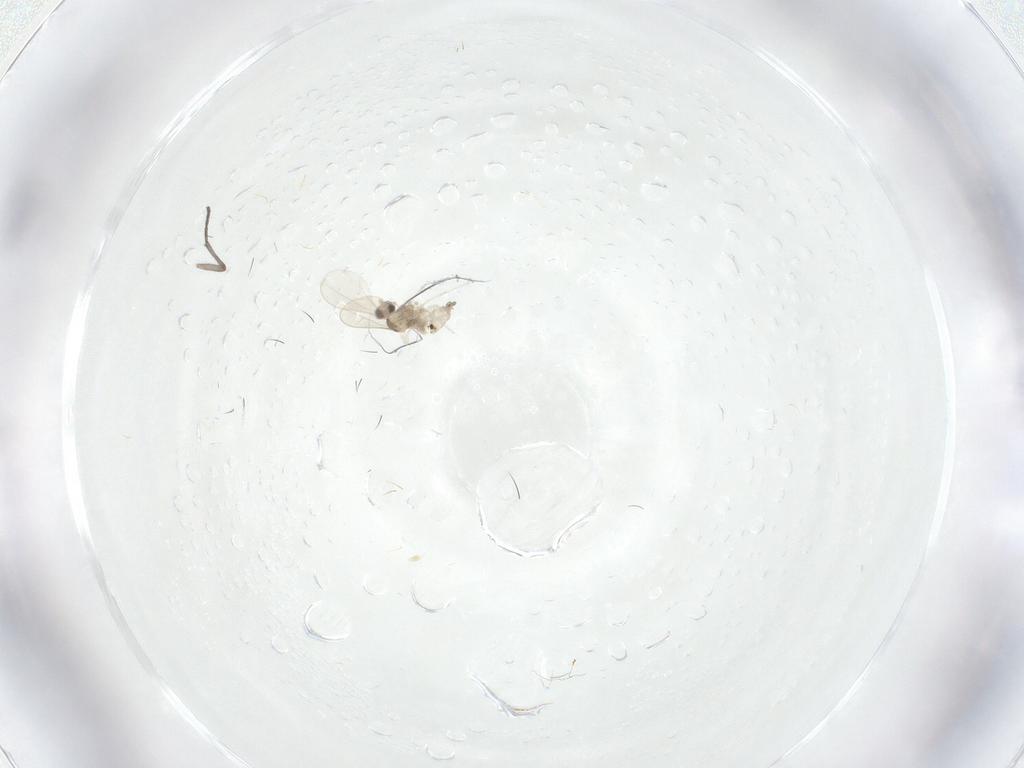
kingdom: Animalia
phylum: Arthropoda
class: Insecta
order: Diptera
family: Sciaridae
